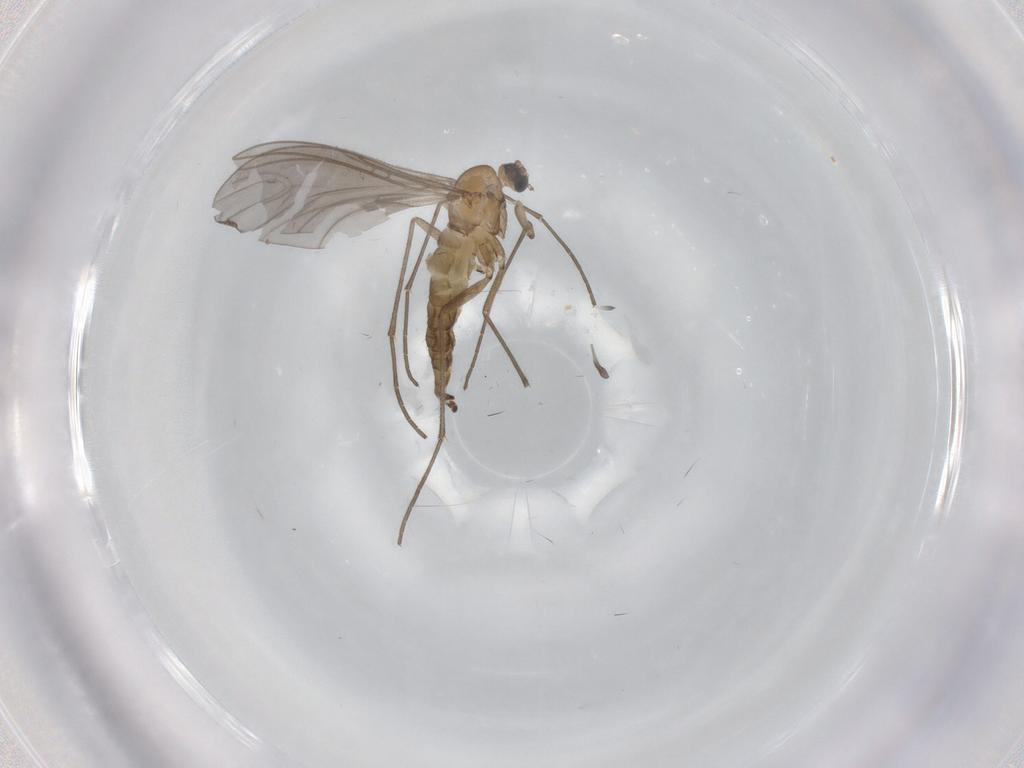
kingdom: Animalia
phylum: Arthropoda
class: Insecta
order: Diptera
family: Sciaridae
